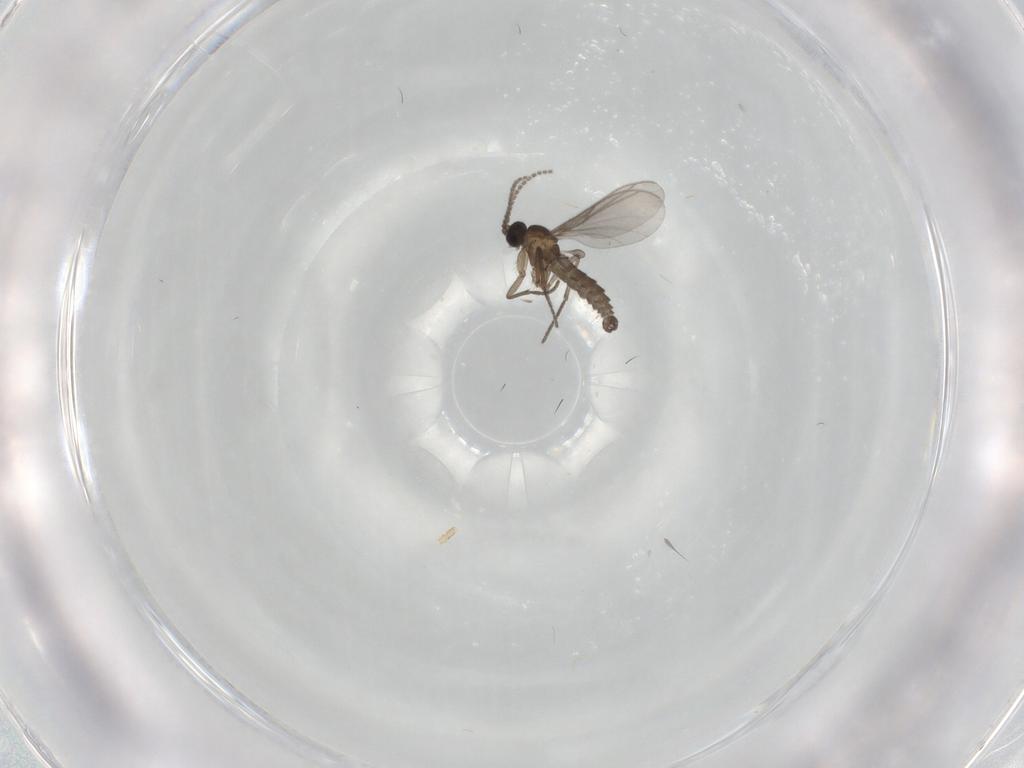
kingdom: Animalia
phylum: Arthropoda
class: Insecta
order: Diptera
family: Sciaridae
